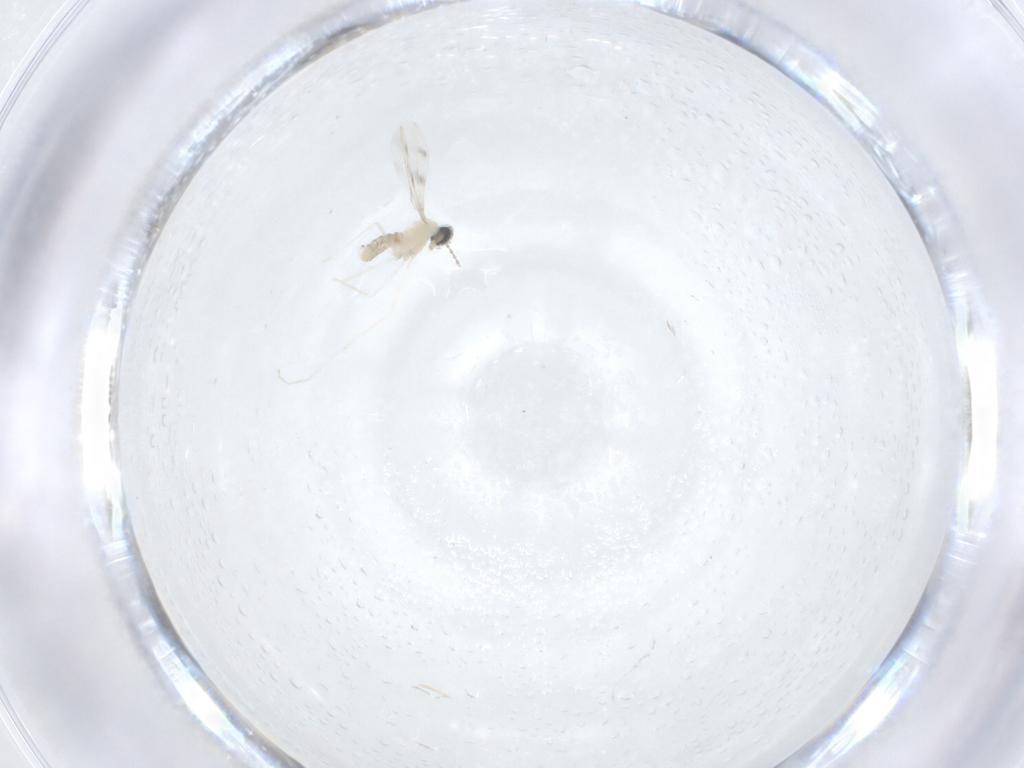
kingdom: Animalia
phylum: Arthropoda
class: Insecta
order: Diptera
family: Cecidomyiidae
